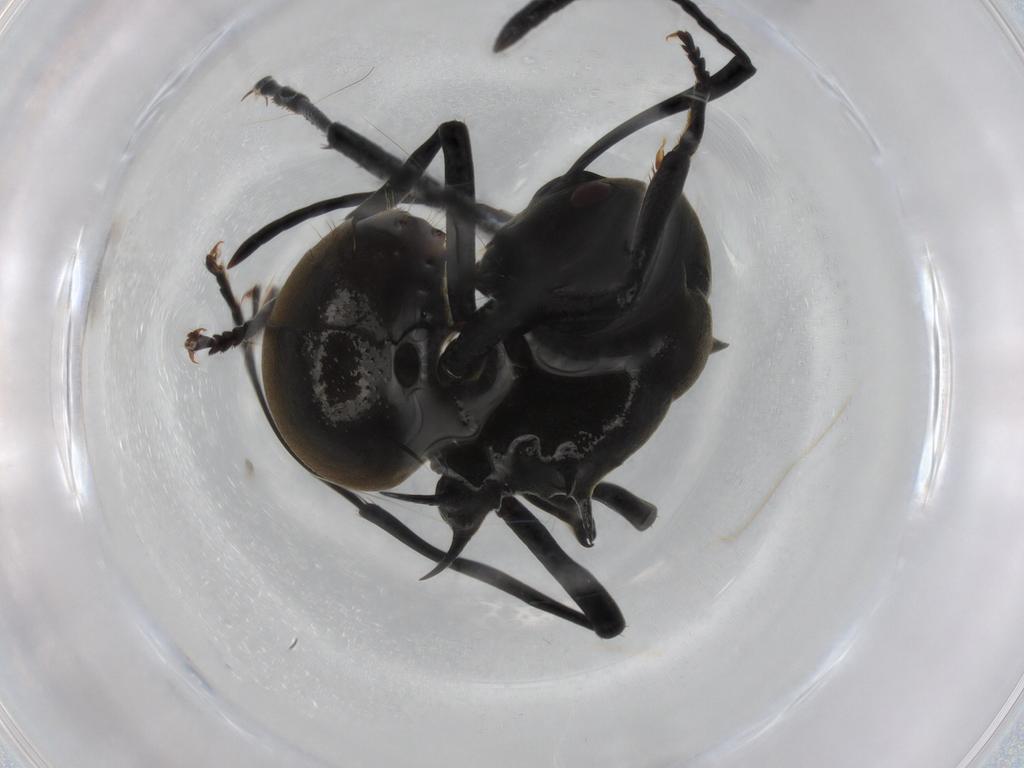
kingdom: Animalia
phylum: Arthropoda
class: Insecta
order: Hymenoptera
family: Formicidae
